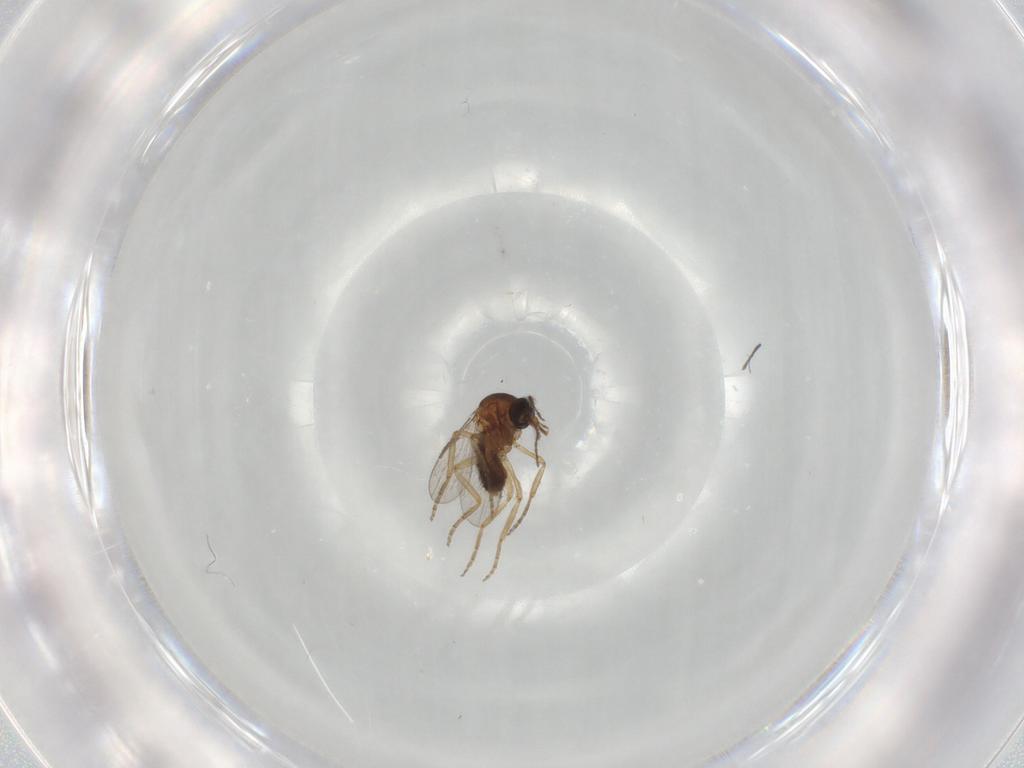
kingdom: Animalia
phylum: Arthropoda
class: Insecta
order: Diptera
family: Ceratopogonidae
